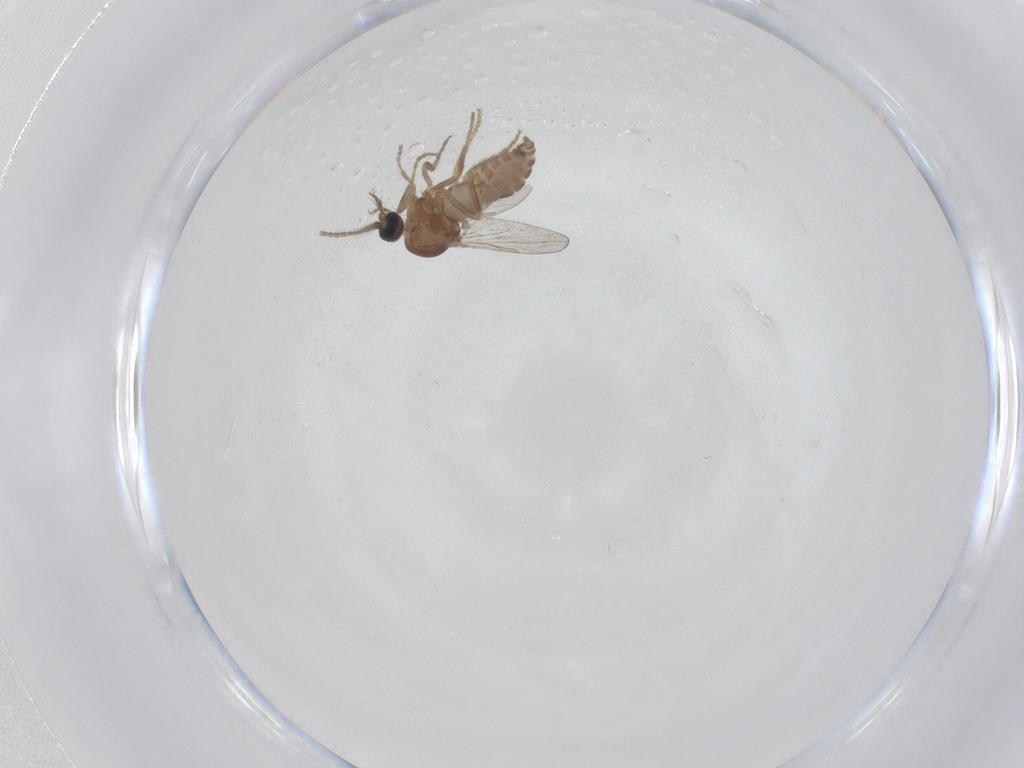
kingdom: Animalia
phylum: Arthropoda
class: Insecta
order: Diptera
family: Ceratopogonidae
